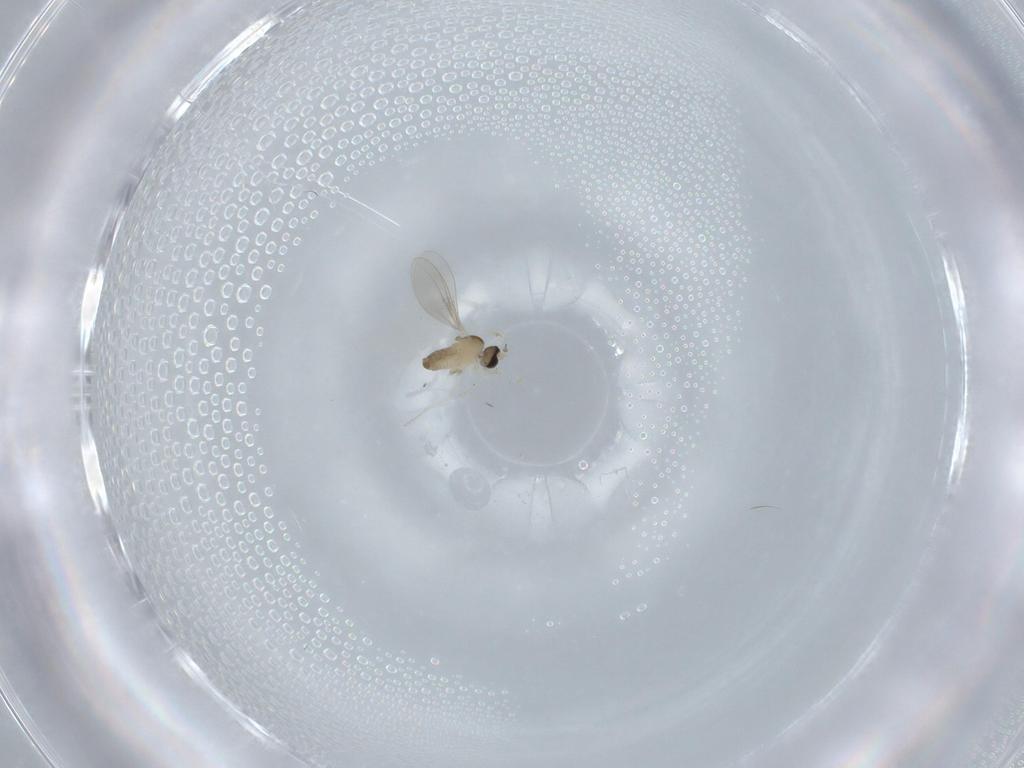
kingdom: Animalia
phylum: Arthropoda
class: Insecta
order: Diptera
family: Cecidomyiidae
